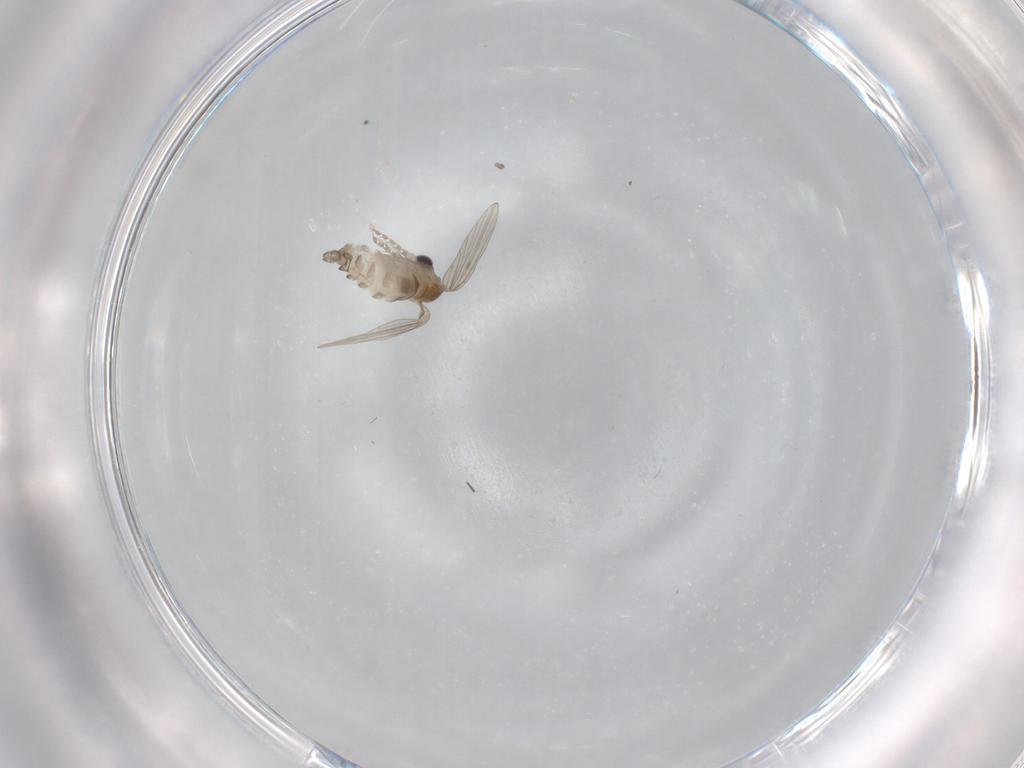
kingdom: Animalia
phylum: Arthropoda
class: Insecta
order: Diptera
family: Psychodidae
